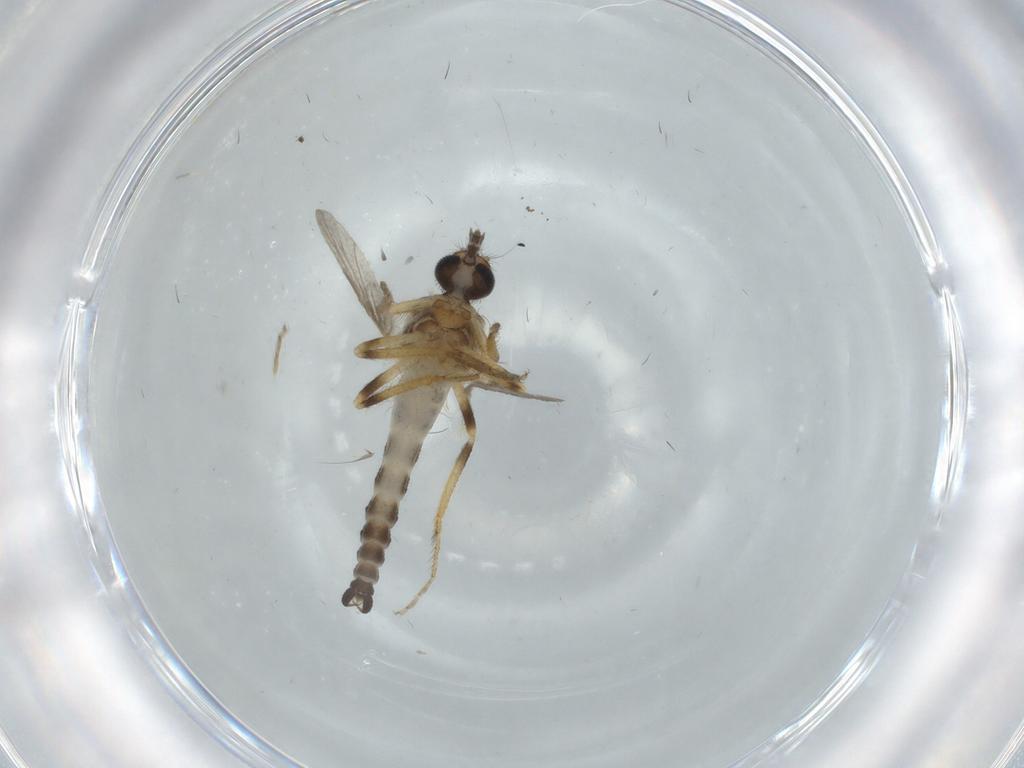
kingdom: Animalia
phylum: Arthropoda
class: Insecta
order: Diptera
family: Ceratopogonidae
